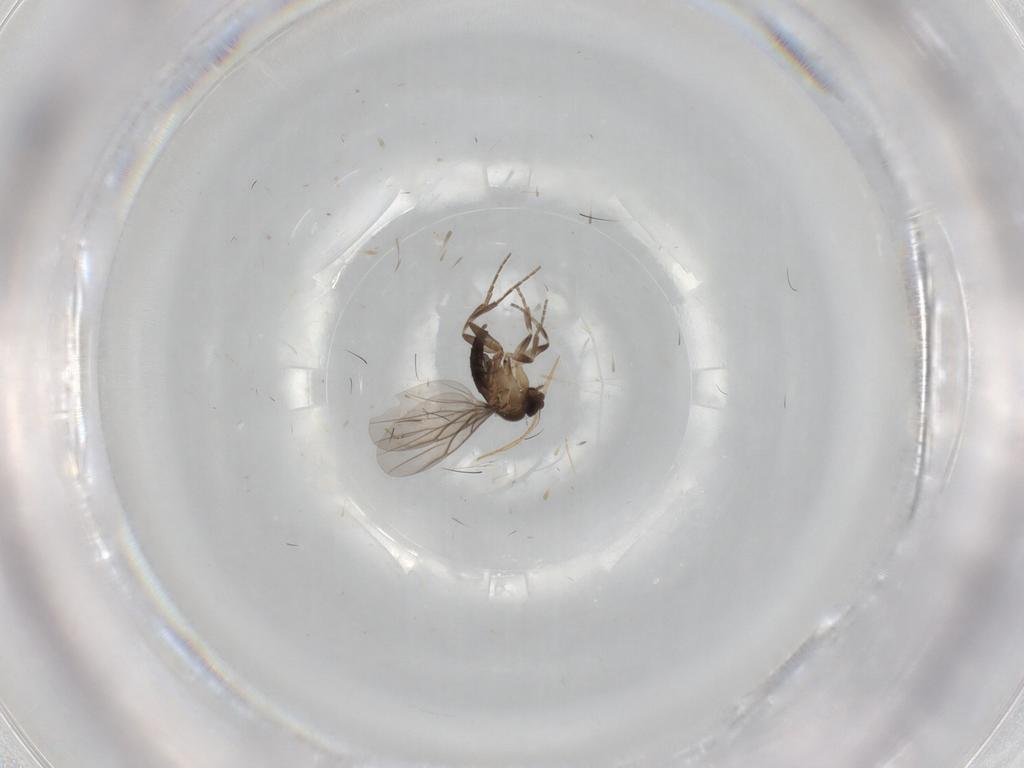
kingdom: Animalia
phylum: Arthropoda
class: Insecta
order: Diptera
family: Cecidomyiidae
